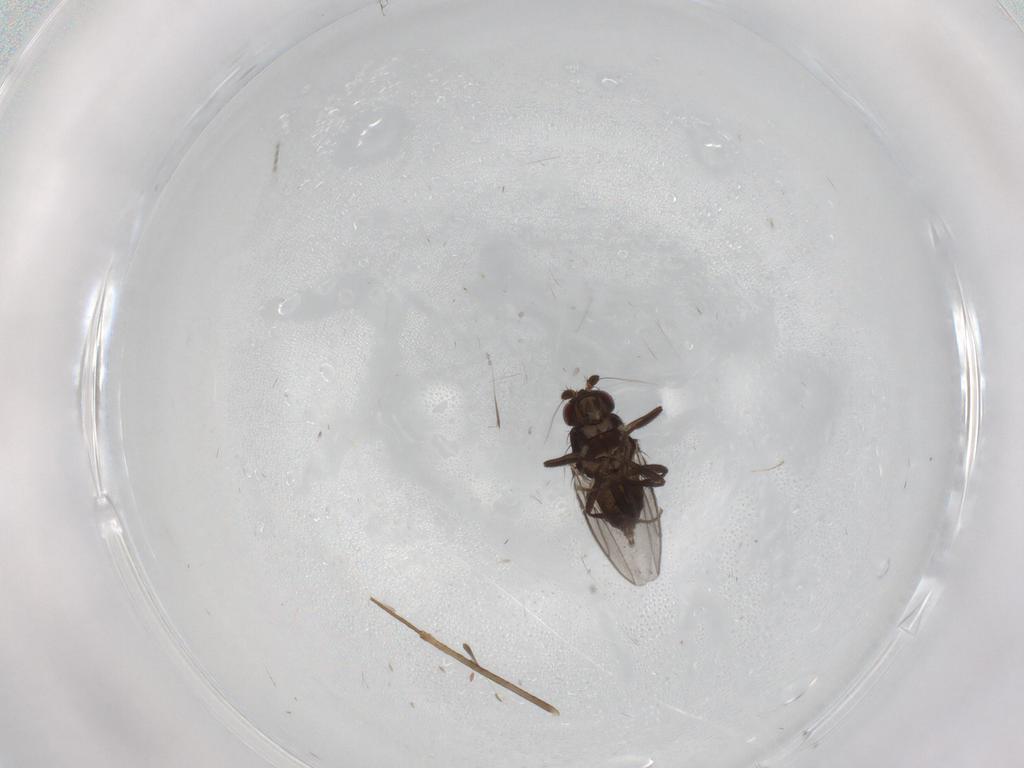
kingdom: Animalia
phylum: Arthropoda
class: Insecta
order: Diptera
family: Sphaeroceridae
